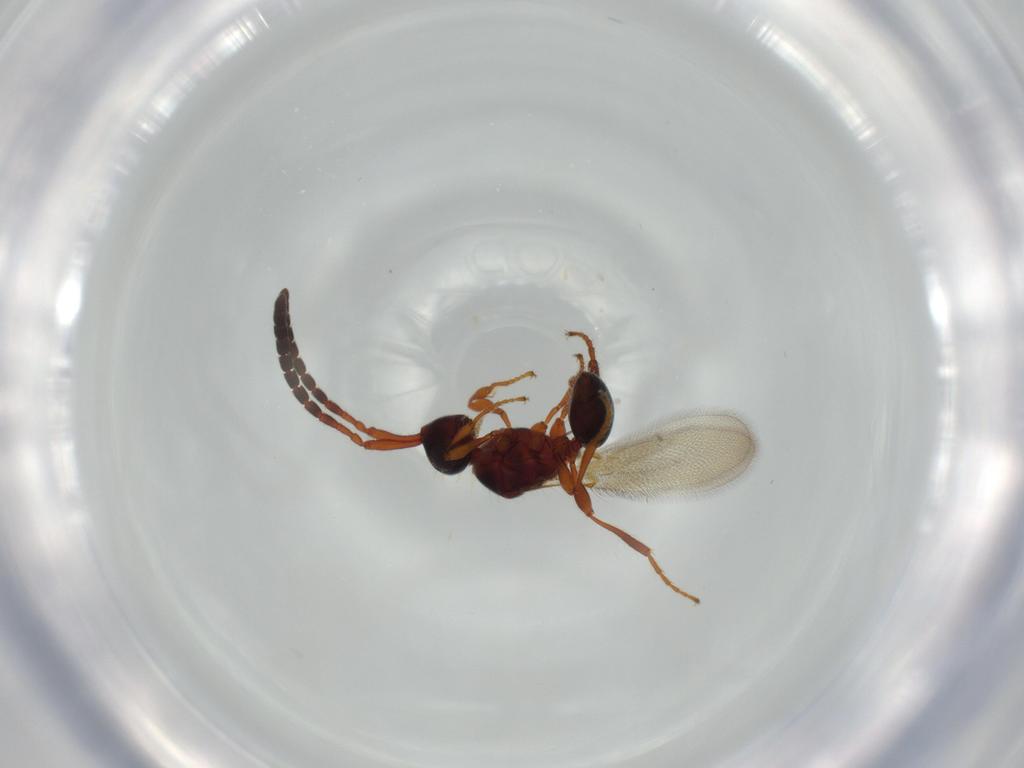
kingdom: Animalia
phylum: Arthropoda
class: Insecta
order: Hymenoptera
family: Diapriidae
